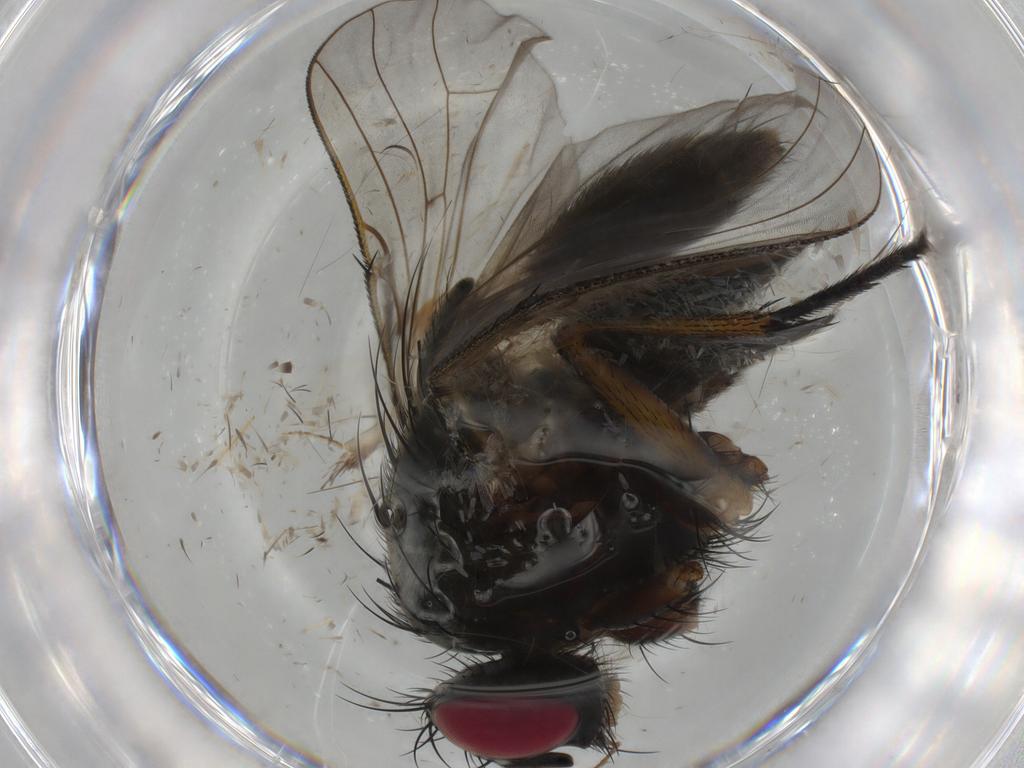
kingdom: Animalia
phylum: Arthropoda
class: Insecta
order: Diptera
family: Muscidae
